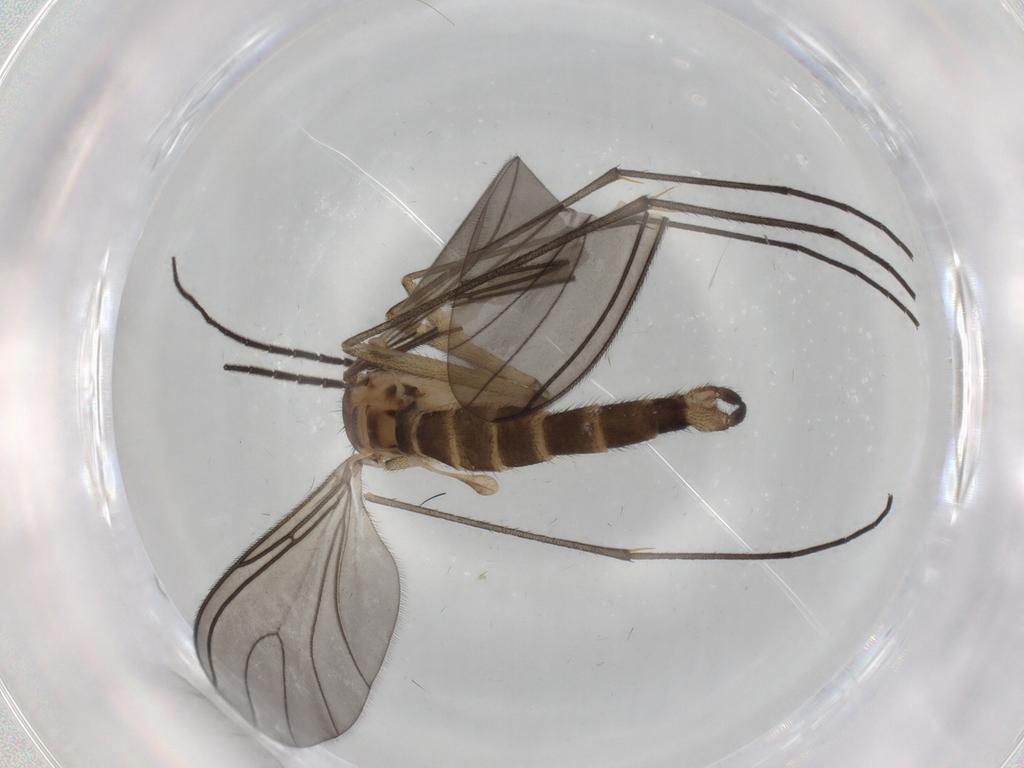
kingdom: Animalia
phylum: Arthropoda
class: Insecta
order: Diptera
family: Sciaridae
